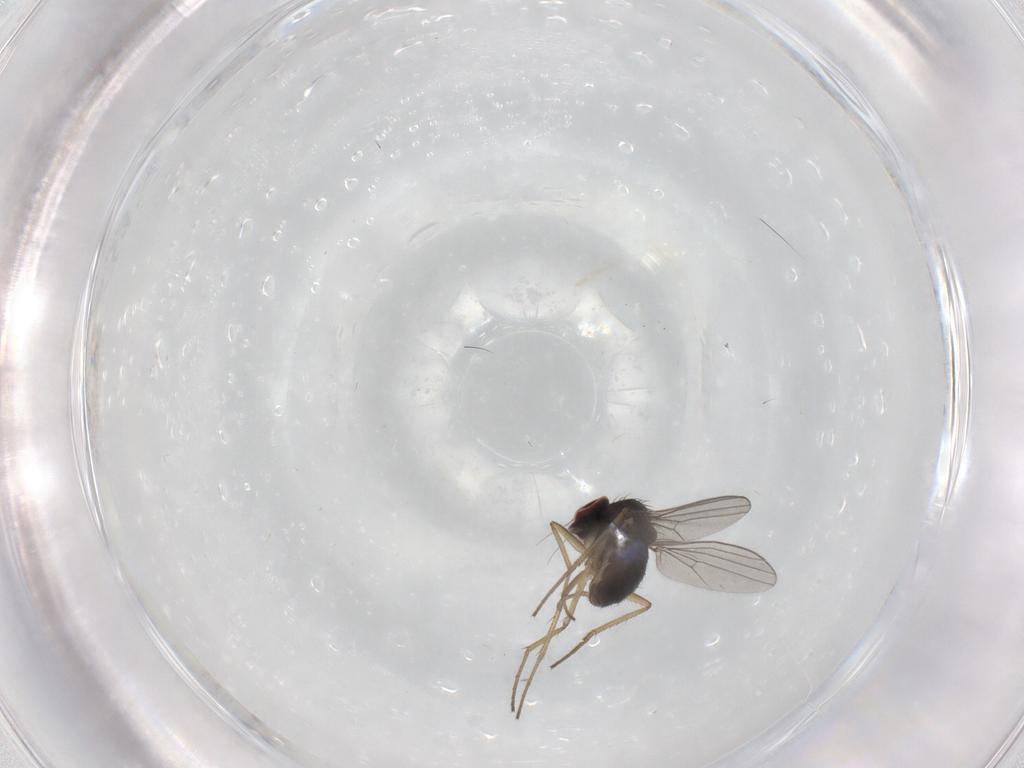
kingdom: Animalia
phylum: Arthropoda
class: Insecta
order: Diptera
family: Dolichopodidae
